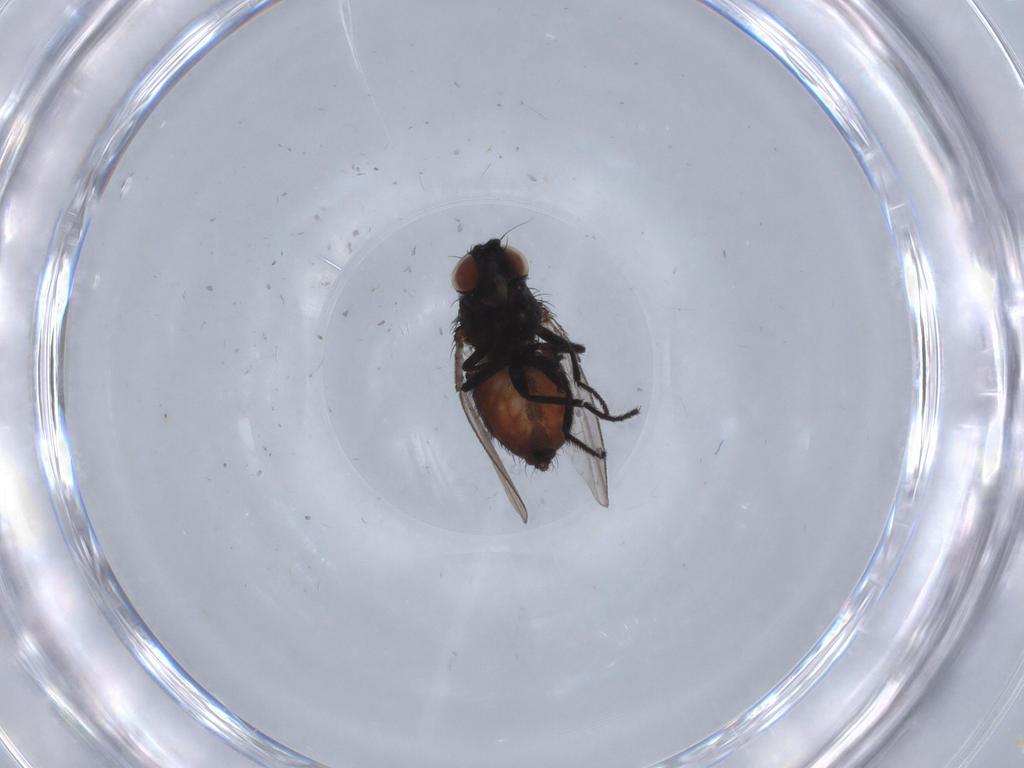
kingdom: Animalia
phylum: Arthropoda
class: Insecta
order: Diptera
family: Milichiidae
